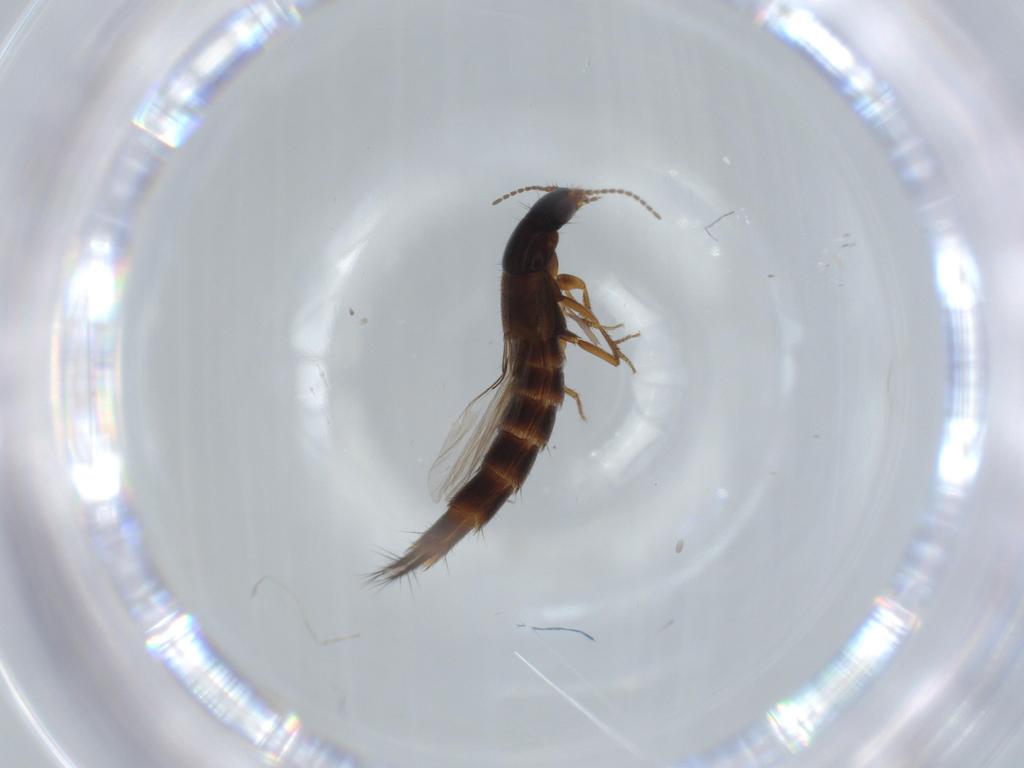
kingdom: Animalia
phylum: Arthropoda
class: Insecta
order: Coleoptera
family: Staphylinidae
